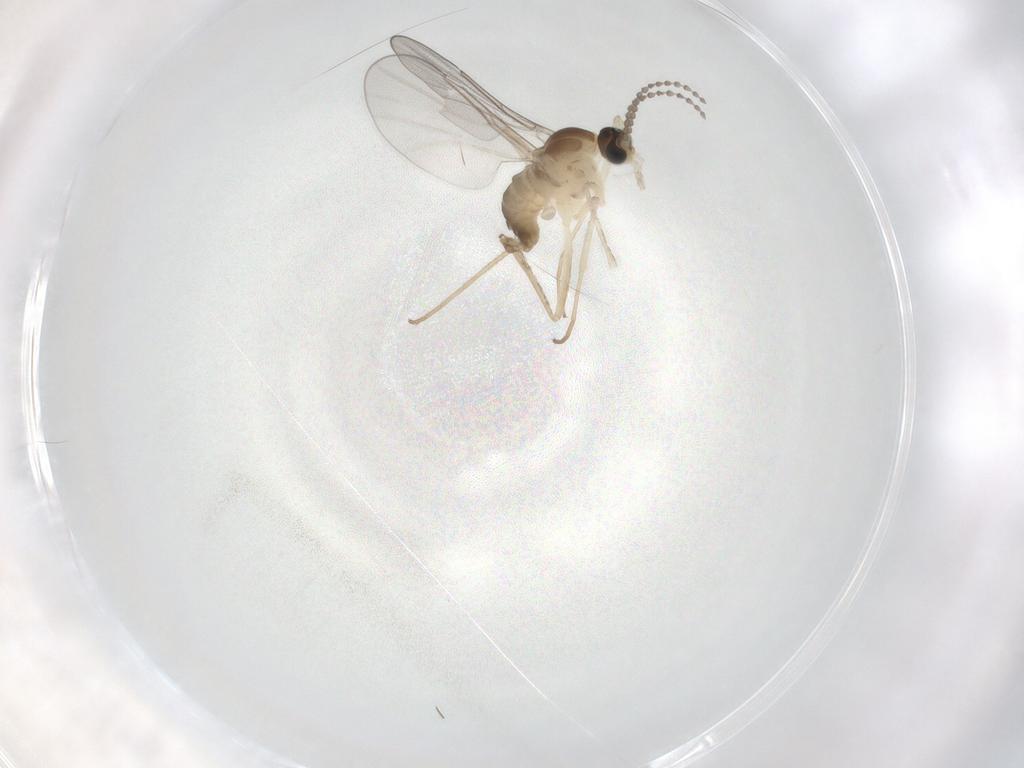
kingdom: Animalia
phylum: Arthropoda
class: Insecta
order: Diptera
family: Cecidomyiidae
